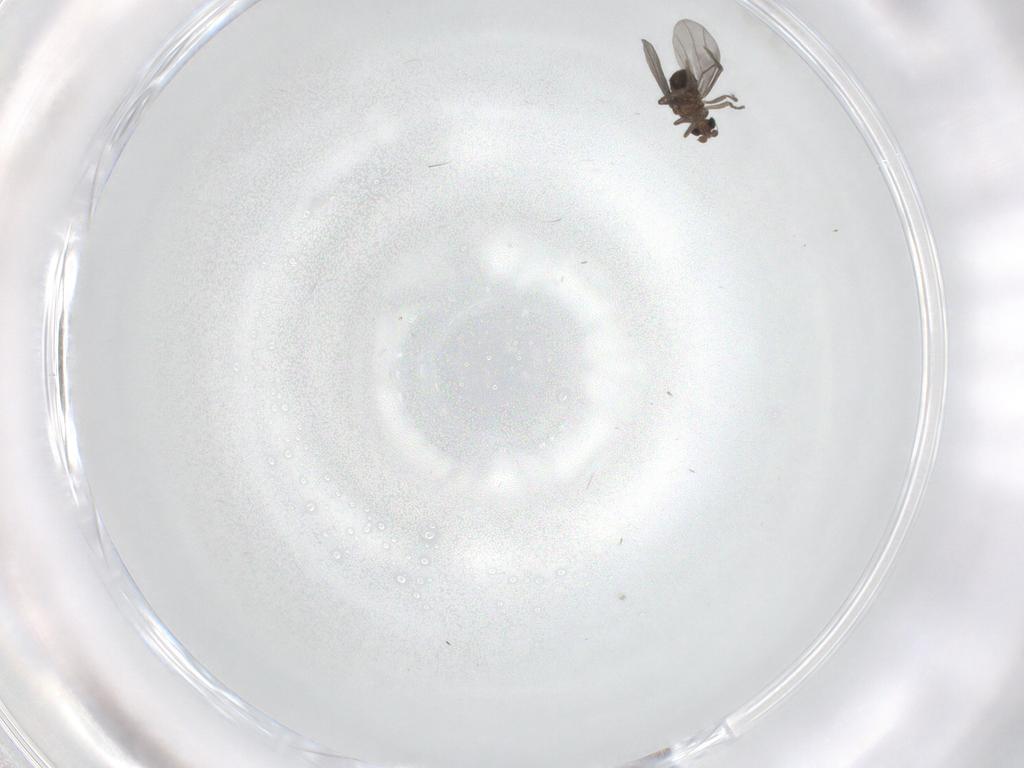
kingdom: Animalia
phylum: Arthropoda
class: Insecta
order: Diptera
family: Phoridae
